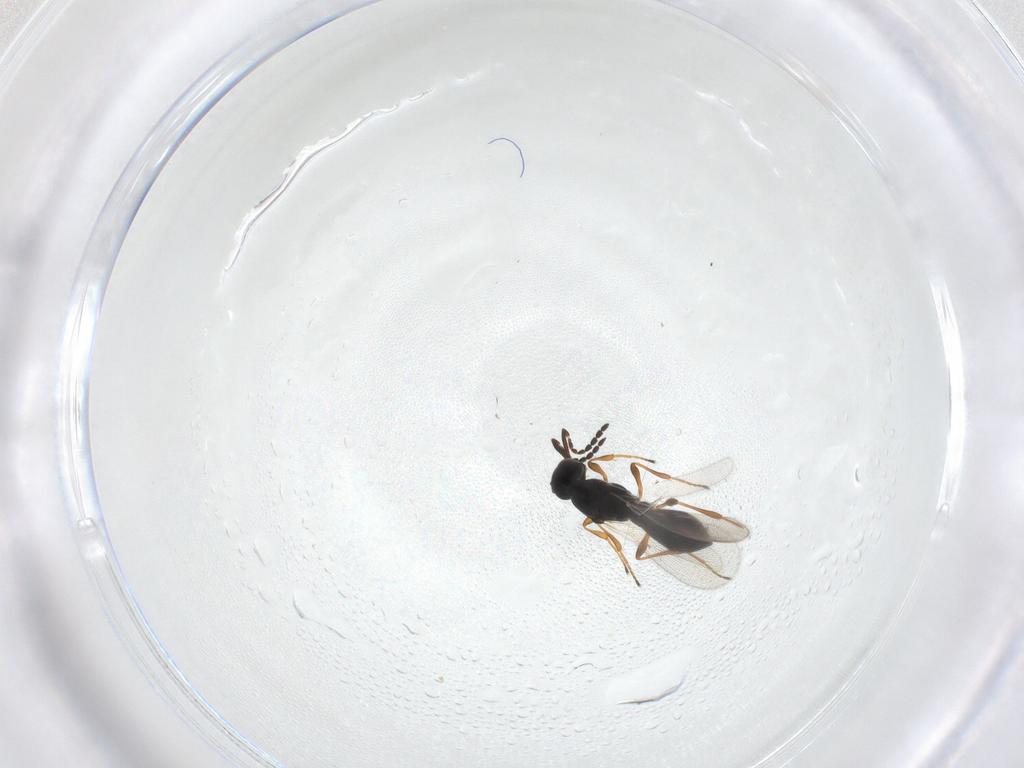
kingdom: Animalia
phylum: Arthropoda
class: Insecta
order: Hymenoptera
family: Platygastridae
